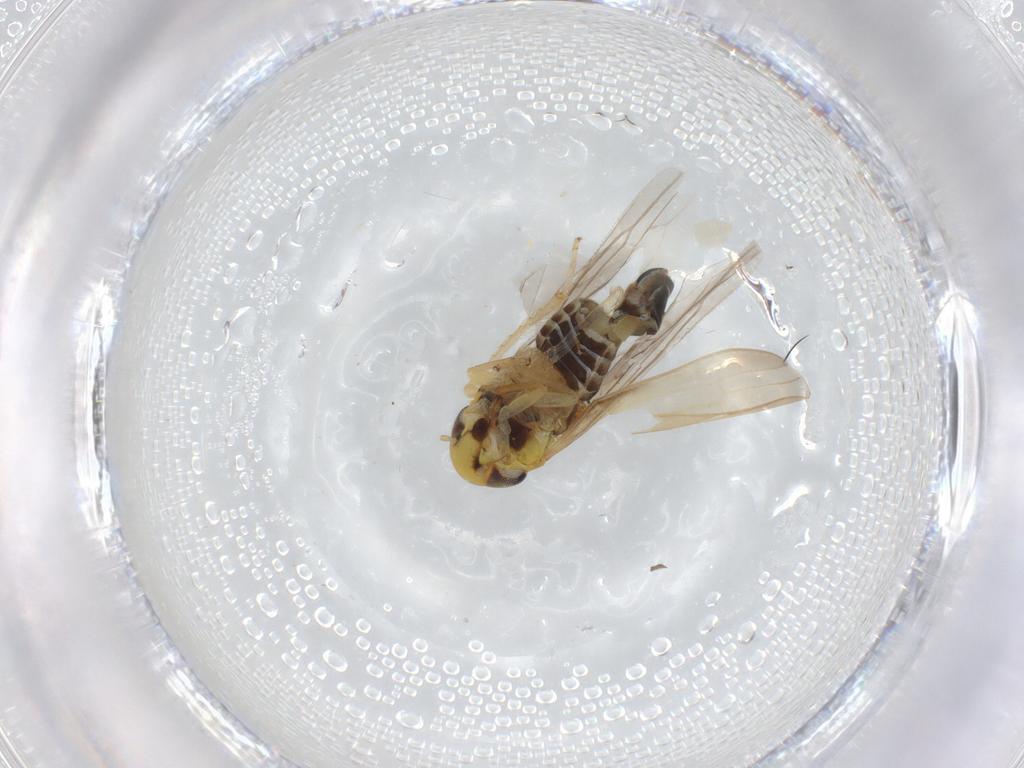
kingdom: Animalia
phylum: Arthropoda
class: Insecta
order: Hemiptera
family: Cicadellidae
